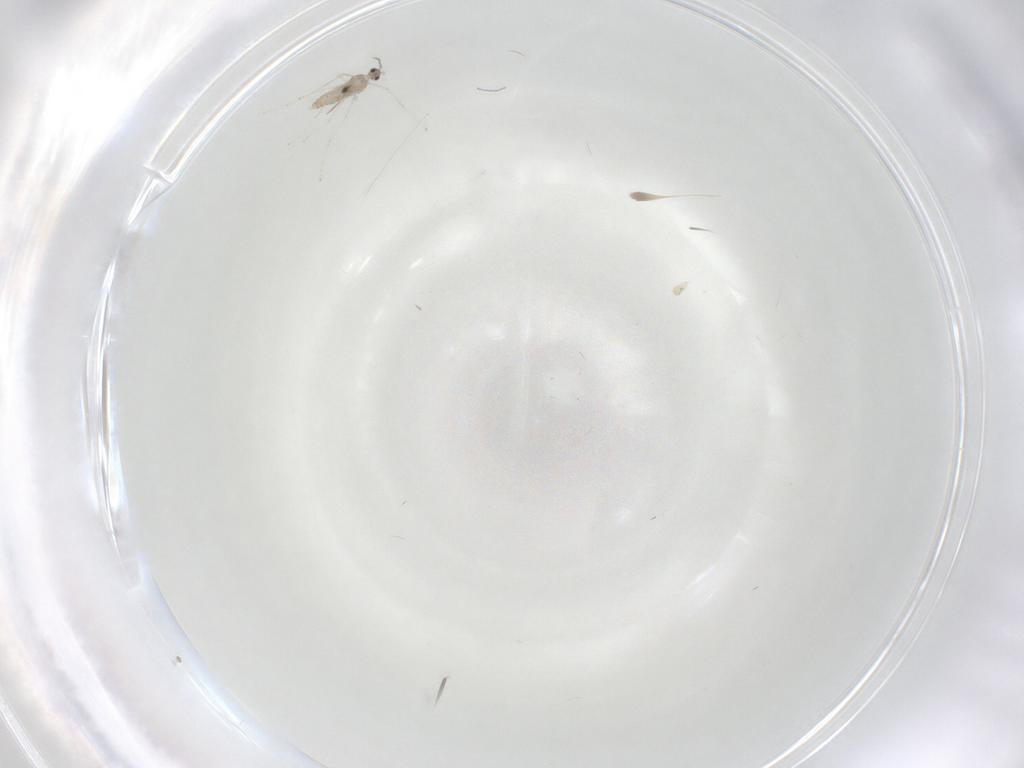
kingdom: Animalia
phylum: Arthropoda
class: Insecta
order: Diptera
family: Cecidomyiidae
